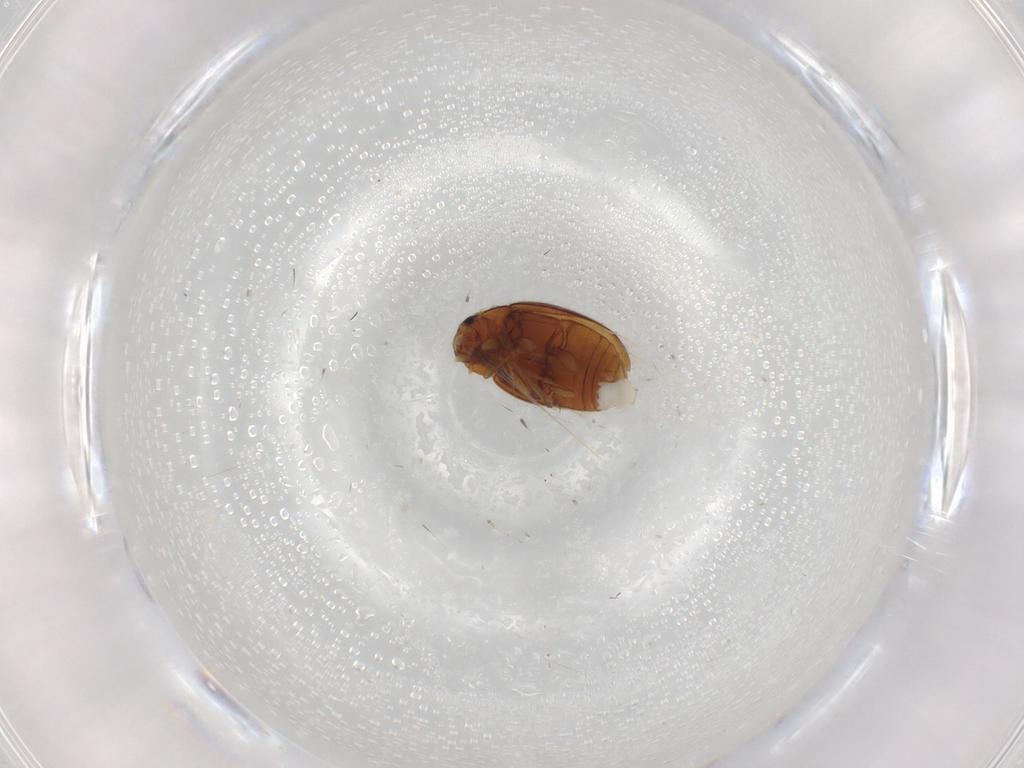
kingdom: Animalia
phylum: Arthropoda
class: Insecta
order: Coleoptera
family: Coccinellidae
